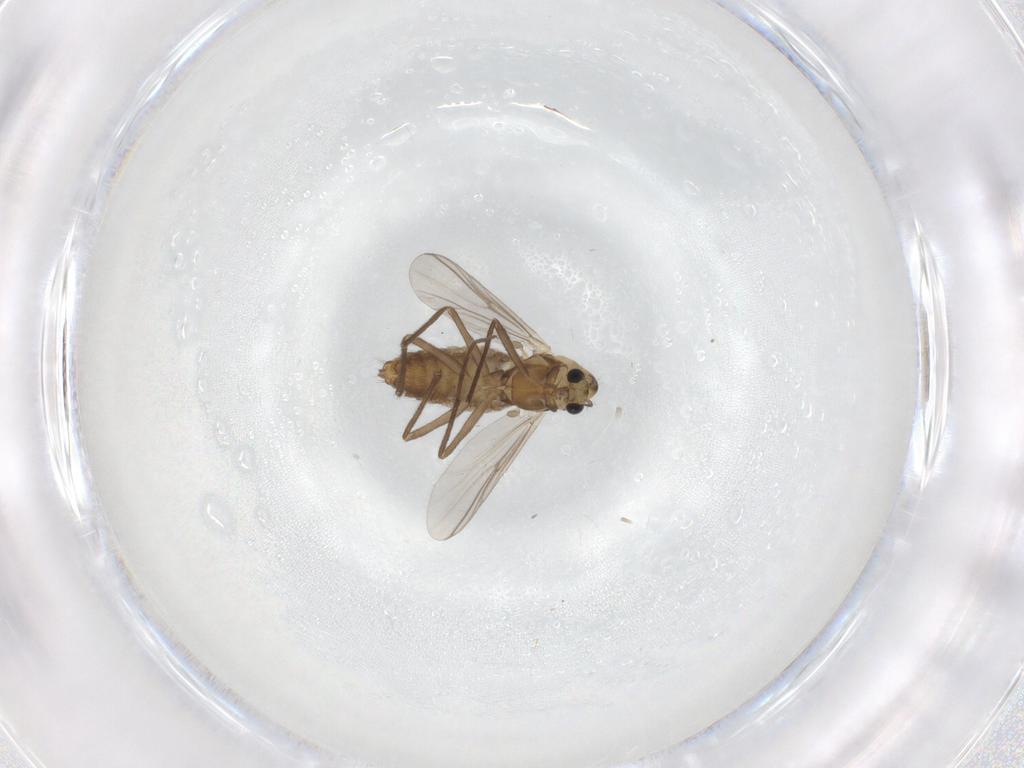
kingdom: Animalia
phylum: Arthropoda
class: Insecta
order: Diptera
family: Chironomidae
